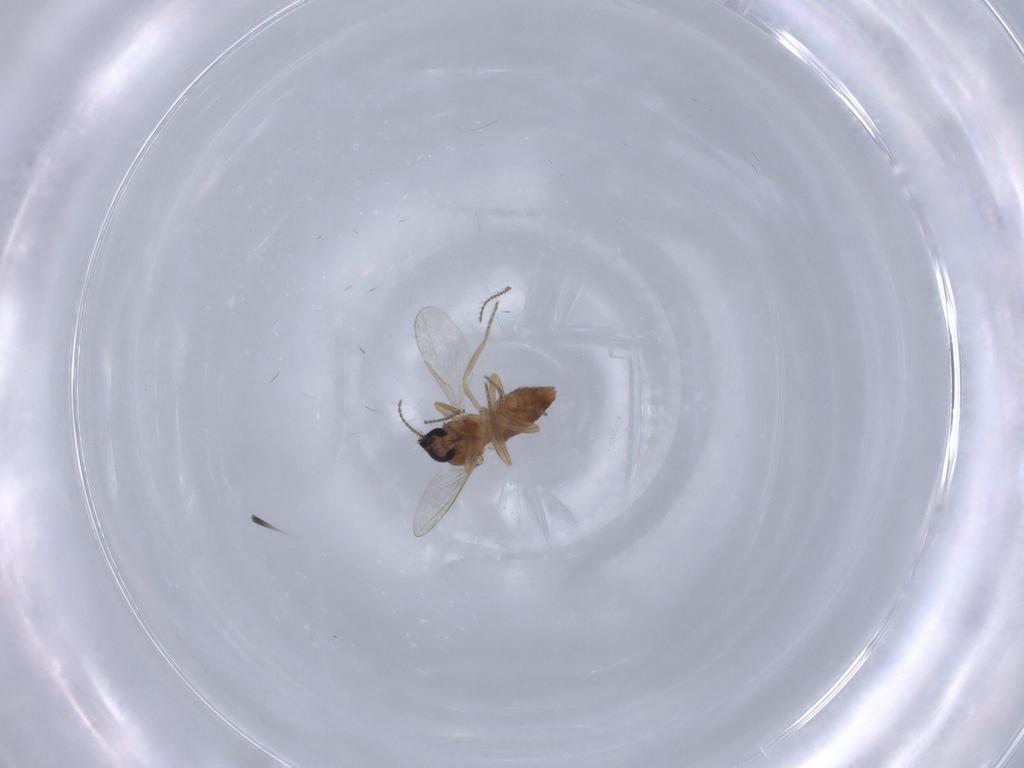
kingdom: Animalia
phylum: Arthropoda
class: Insecta
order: Diptera
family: Ceratopogonidae
